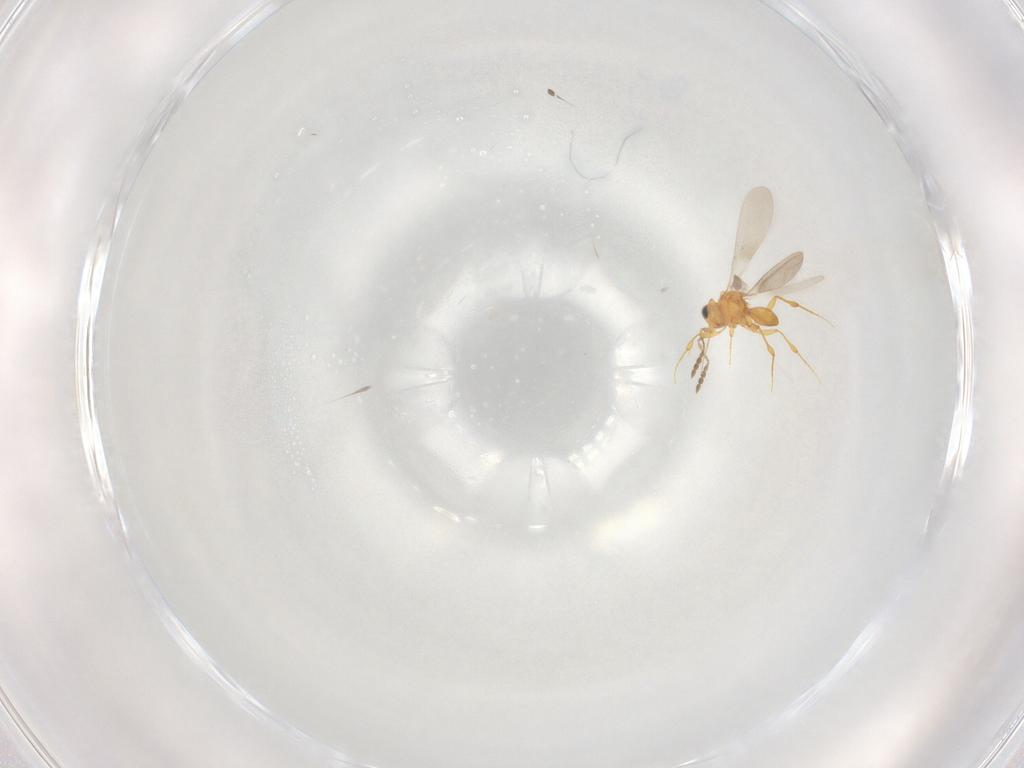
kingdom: Animalia
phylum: Arthropoda
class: Insecta
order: Hymenoptera
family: Platygastridae
